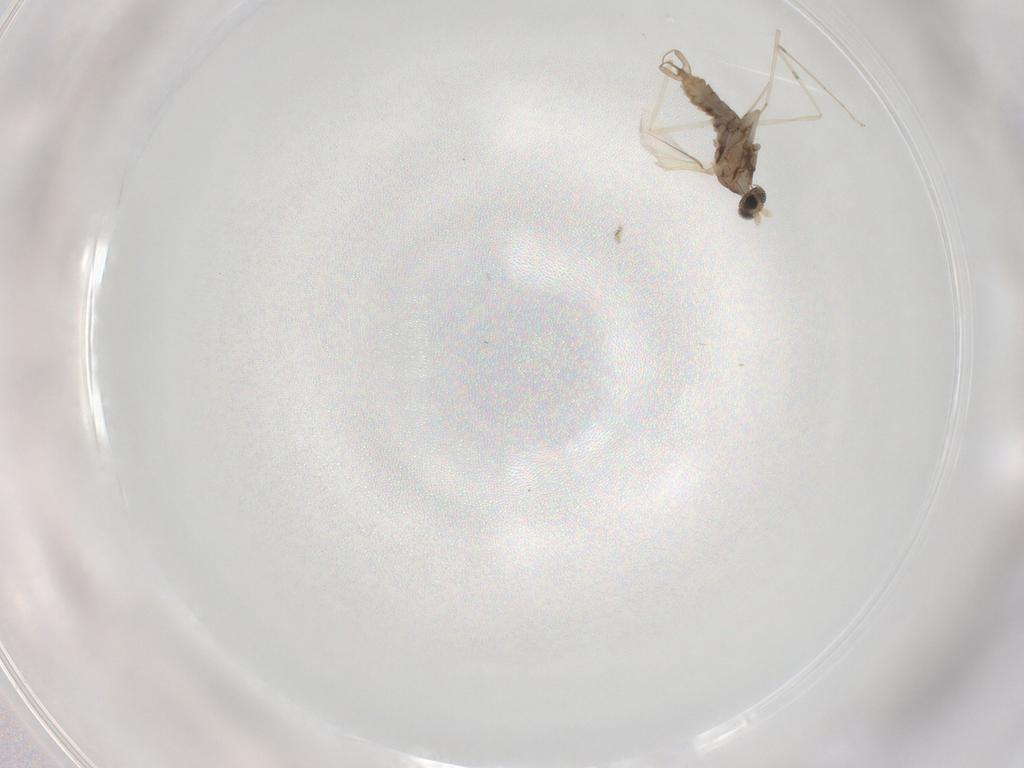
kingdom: Animalia
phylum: Arthropoda
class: Insecta
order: Diptera
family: Cecidomyiidae
